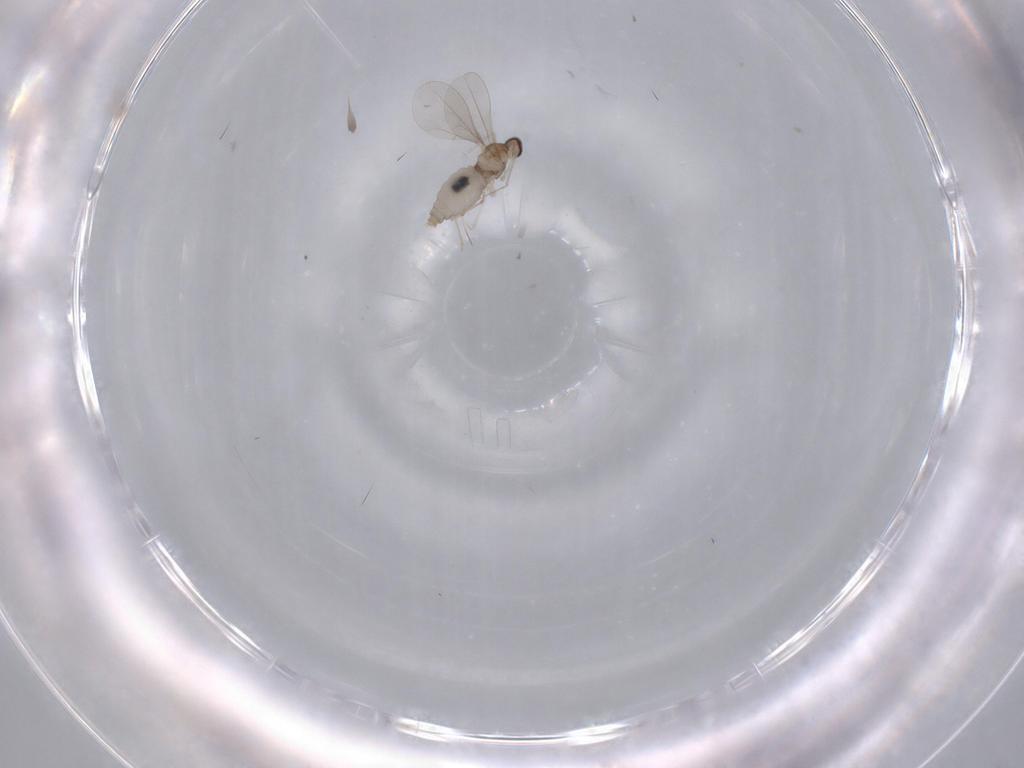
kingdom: Animalia
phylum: Arthropoda
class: Insecta
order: Diptera
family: Cecidomyiidae
